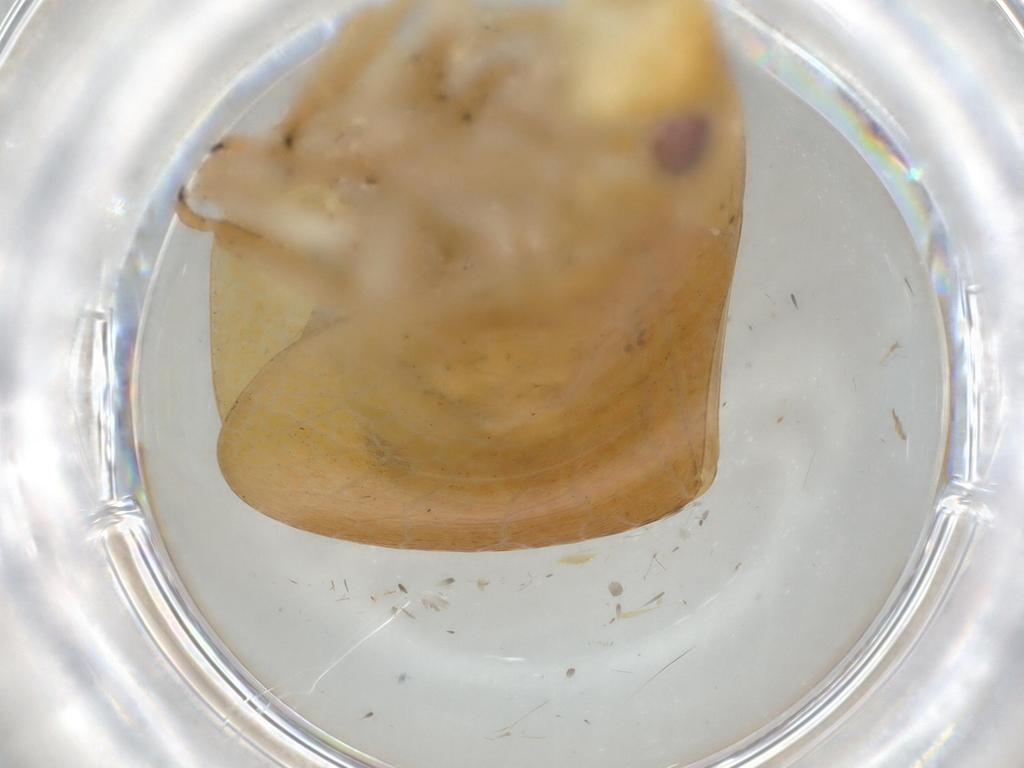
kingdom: Animalia
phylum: Arthropoda
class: Insecta
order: Hemiptera
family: Acanaloniidae
